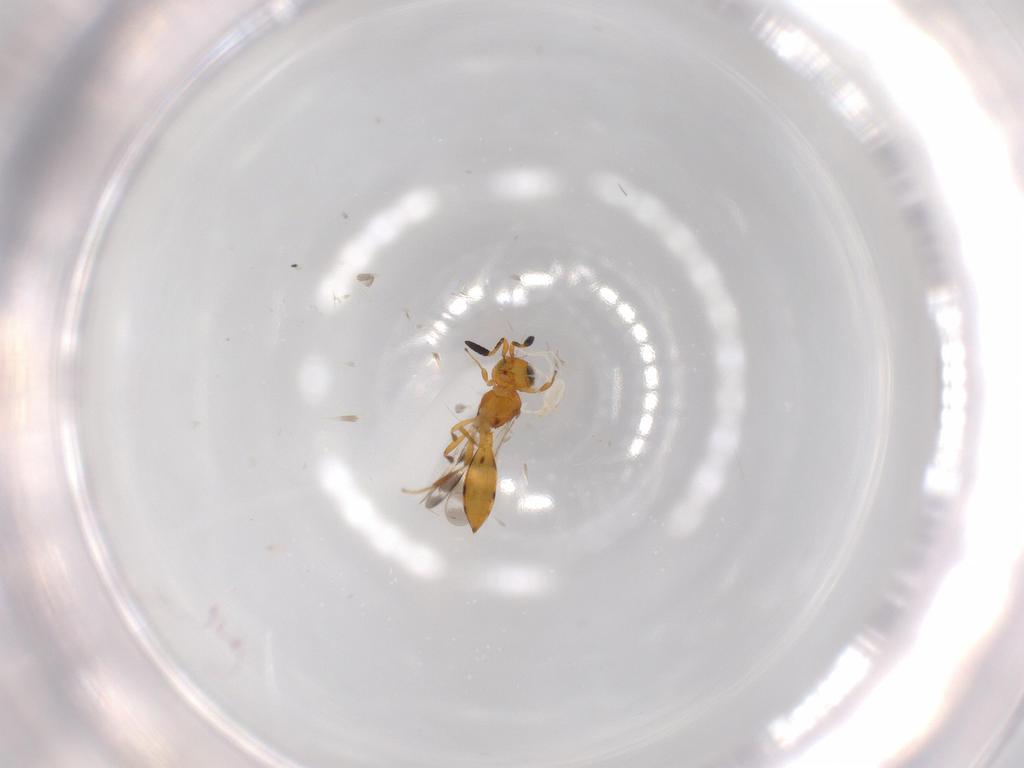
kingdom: Animalia
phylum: Arthropoda
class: Insecta
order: Hymenoptera
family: Scelionidae
